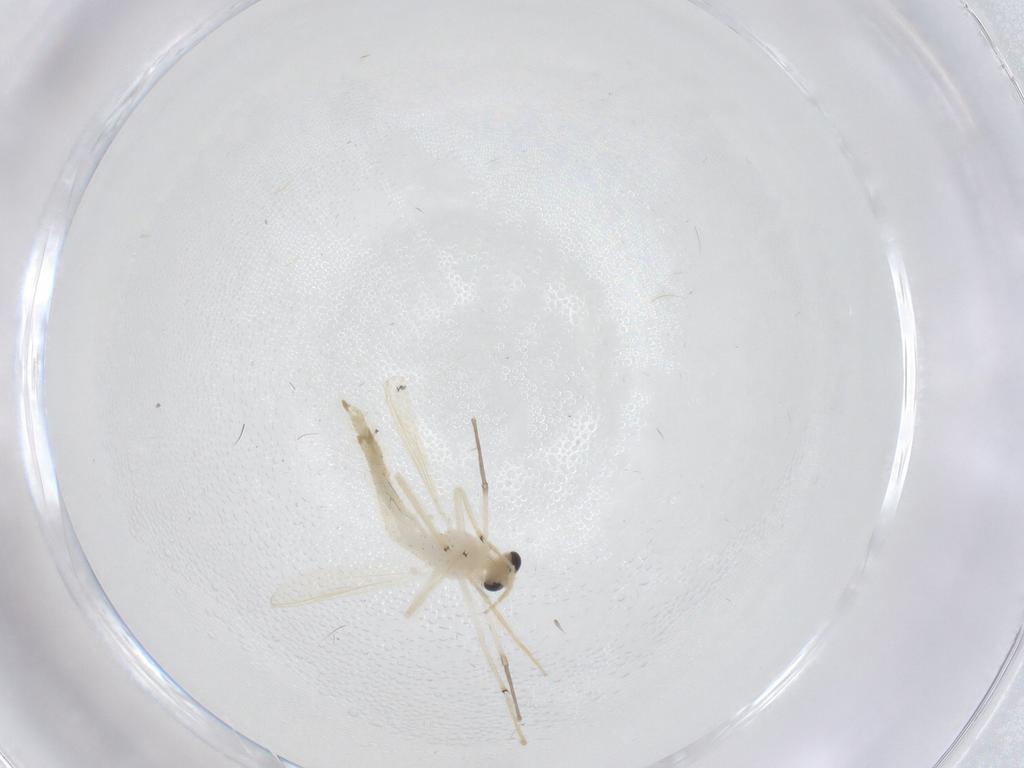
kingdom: Animalia
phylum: Arthropoda
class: Insecta
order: Diptera
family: Chironomidae
